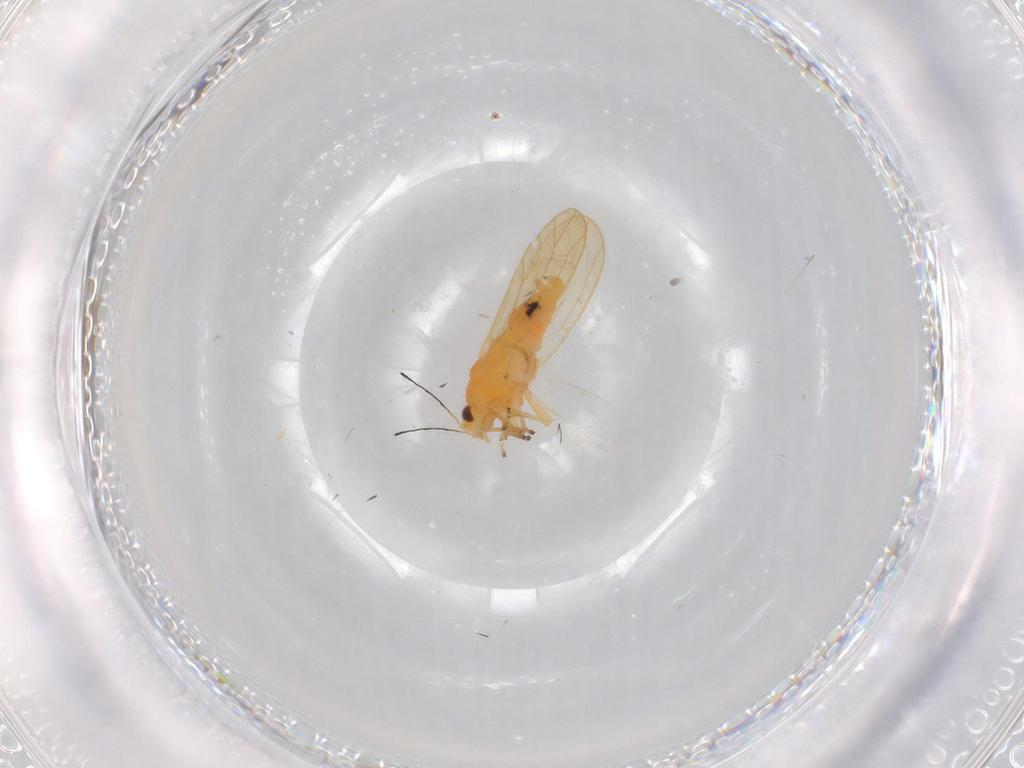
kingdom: Animalia
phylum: Arthropoda
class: Insecta
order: Hemiptera
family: Triozidae
